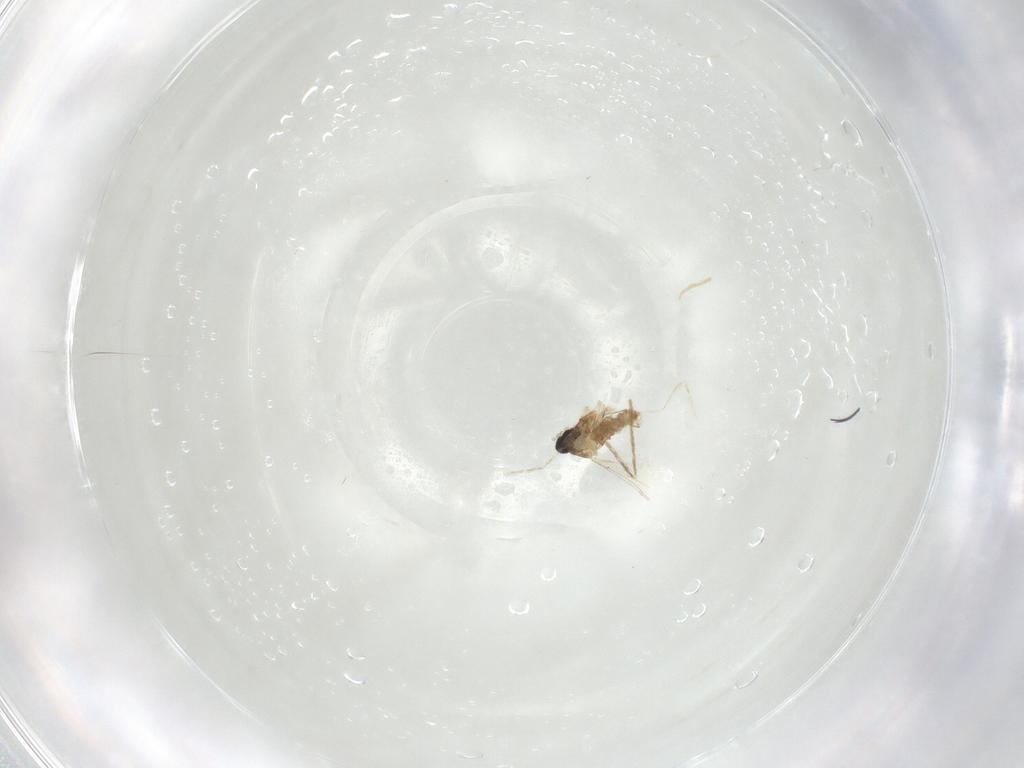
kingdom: Animalia
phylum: Arthropoda
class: Insecta
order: Diptera
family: Cecidomyiidae
